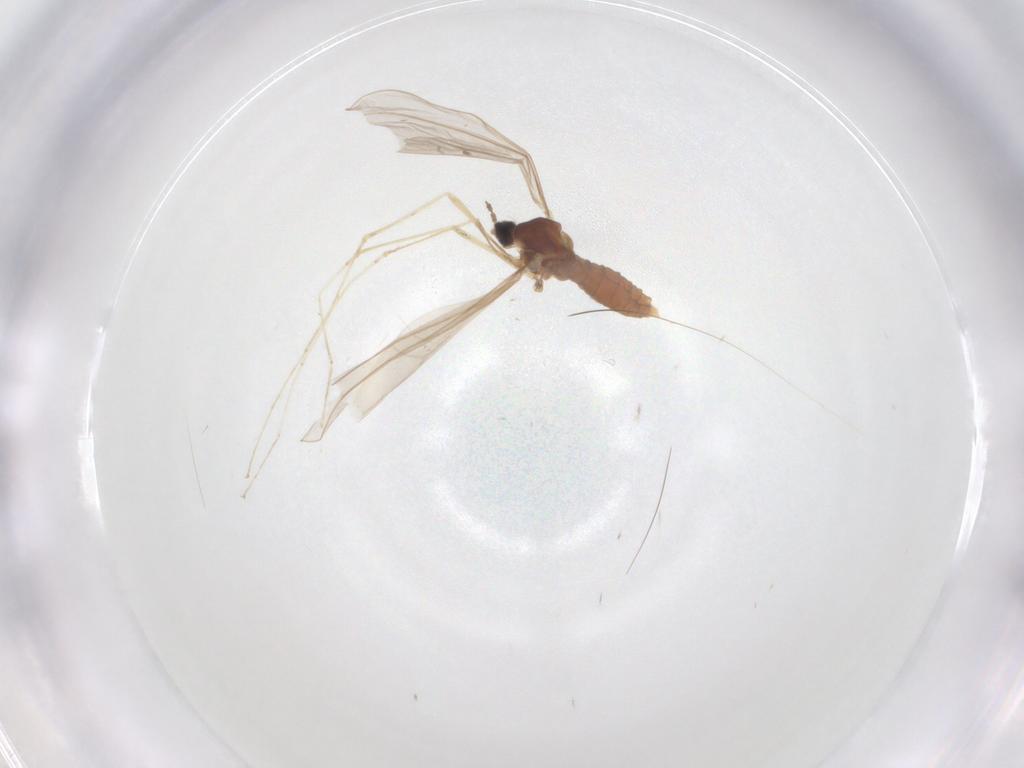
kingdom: Animalia
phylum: Arthropoda
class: Insecta
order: Diptera
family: Cecidomyiidae
